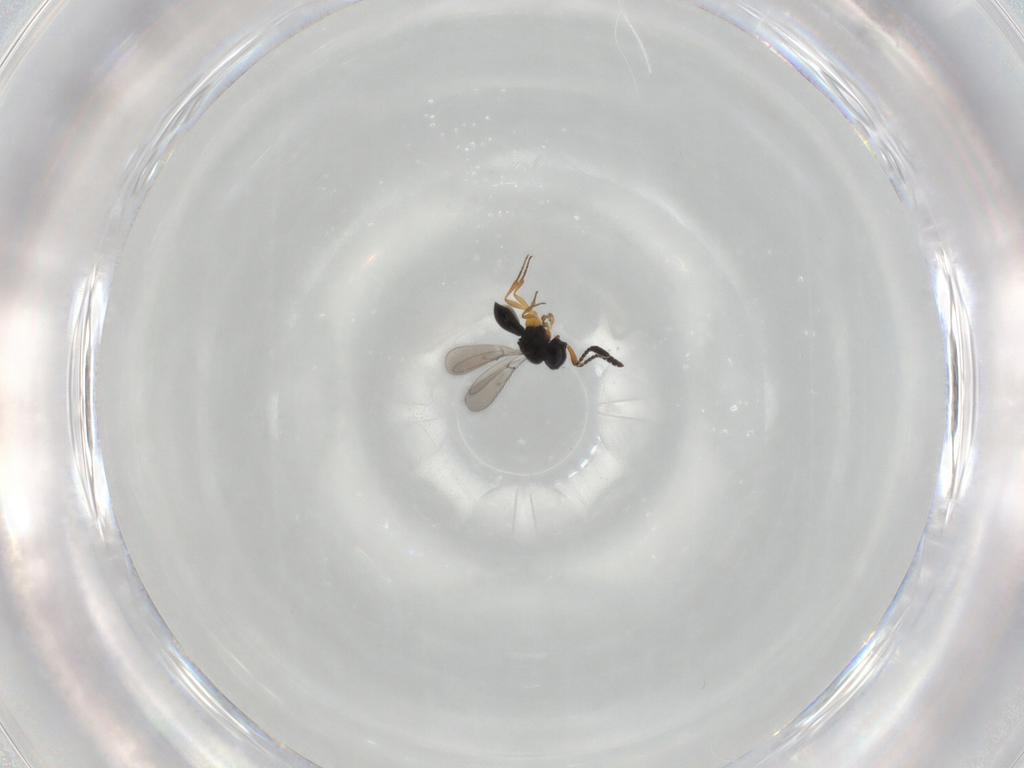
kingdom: Animalia
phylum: Arthropoda
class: Insecta
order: Hymenoptera
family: Scelionidae
